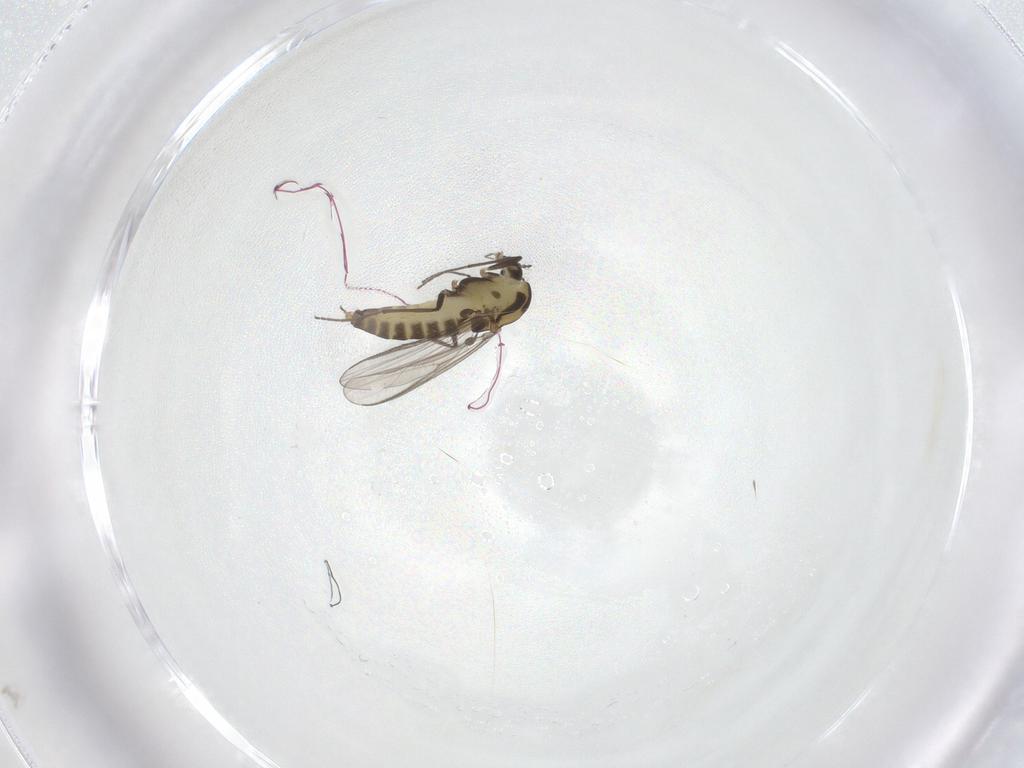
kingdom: Animalia
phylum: Arthropoda
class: Insecta
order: Diptera
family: Chironomidae
